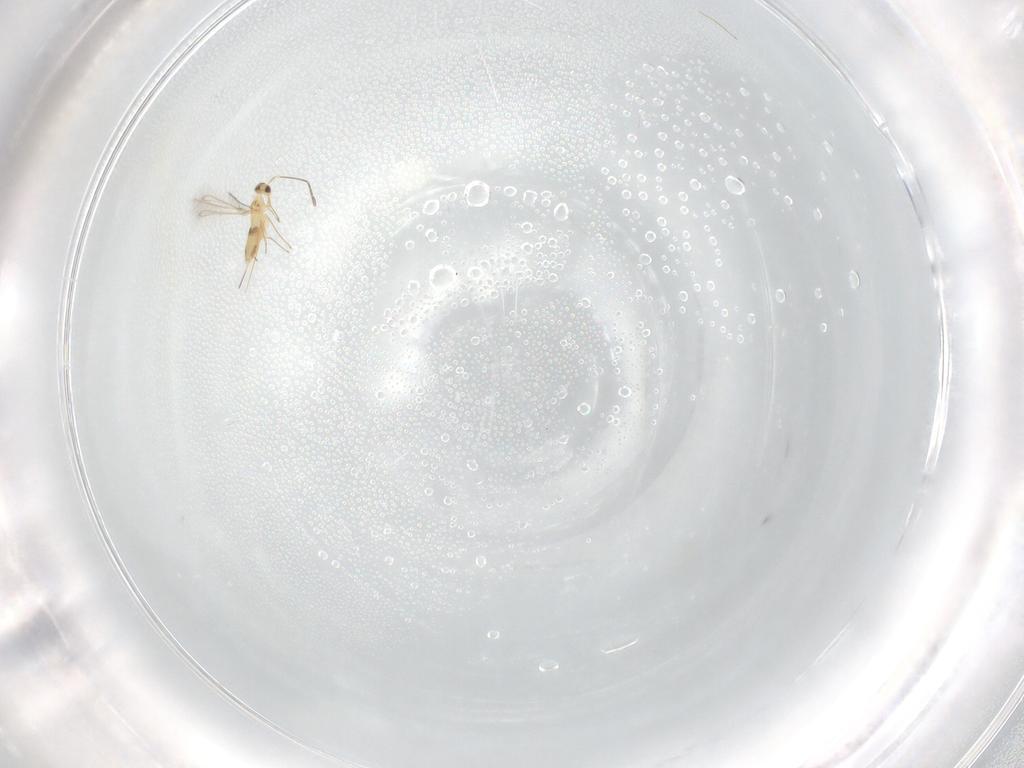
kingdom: Animalia
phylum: Arthropoda
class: Insecta
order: Hymenoptera
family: Mymaridae
